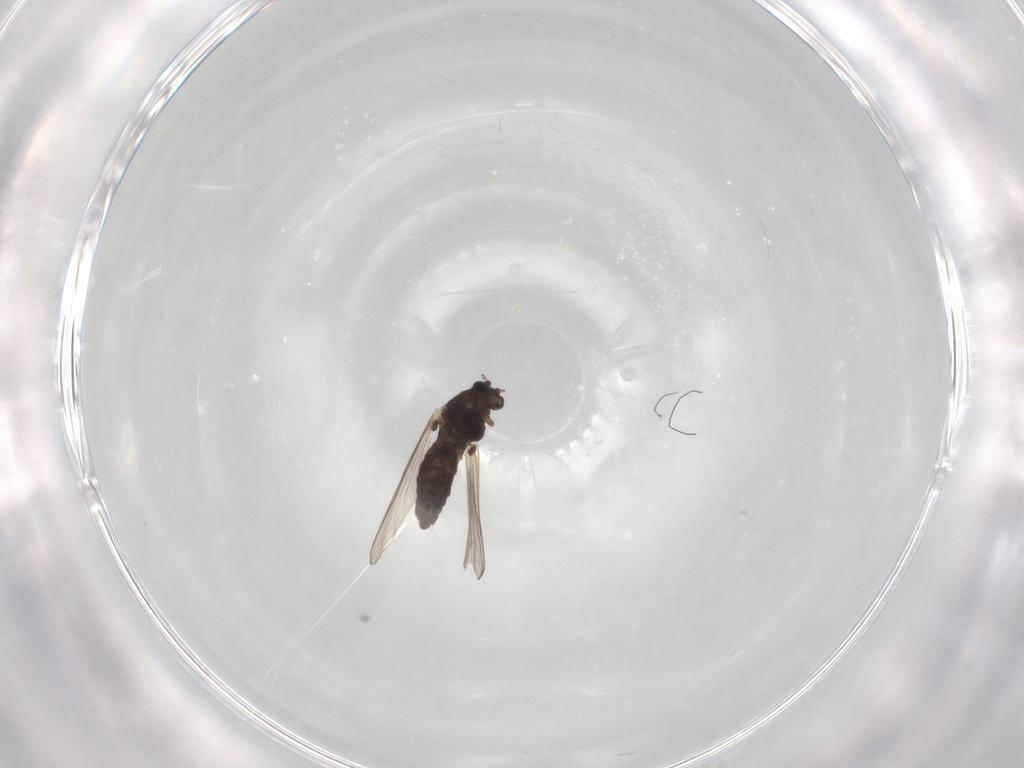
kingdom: Animalia
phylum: Arthropoda
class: Insecta
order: Diptera
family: Chironomidae
